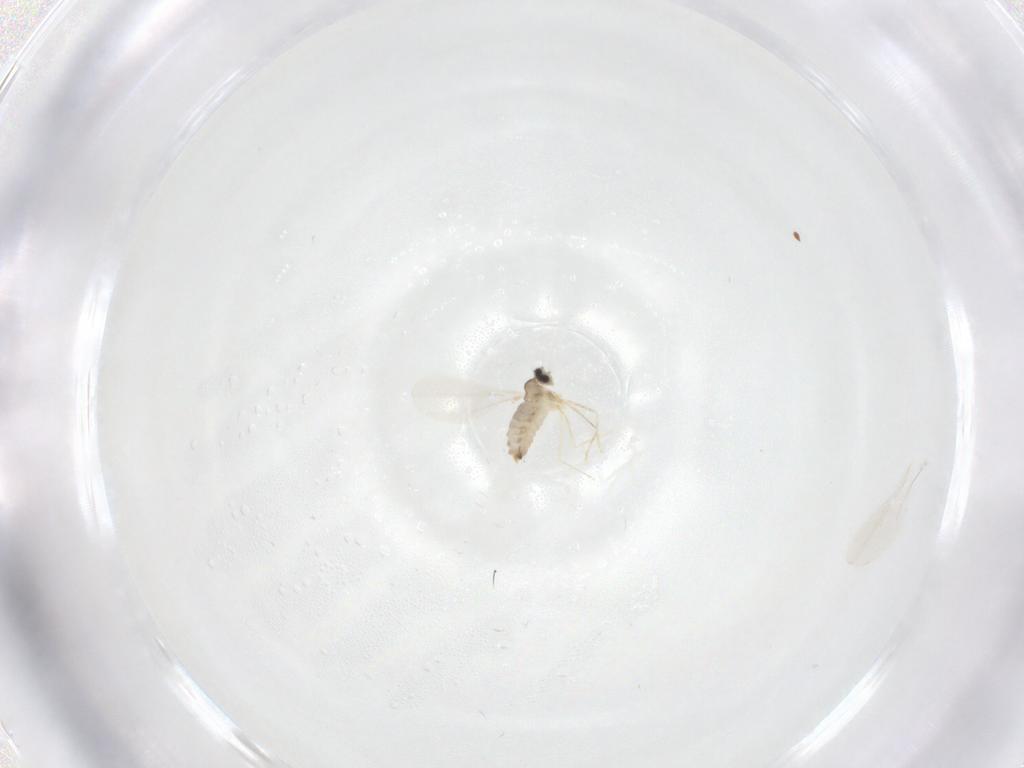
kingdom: Animalia
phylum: Arthropoda
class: Insecta
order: Diptera
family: Cecidomyiidae
